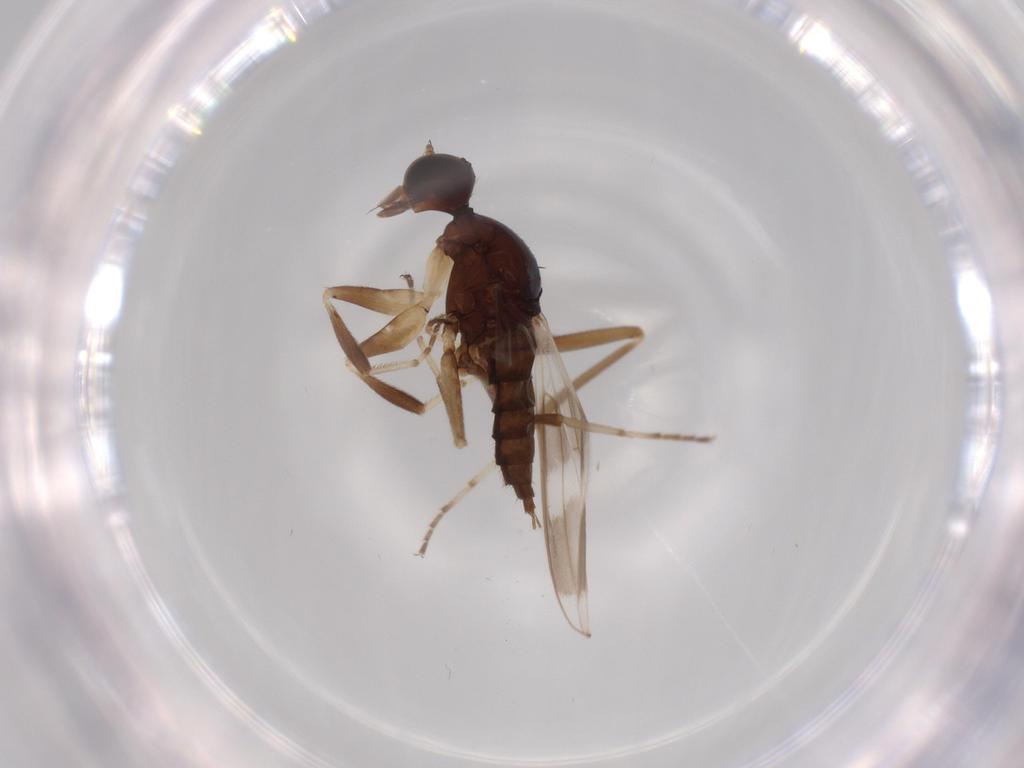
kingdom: Animalia
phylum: Arthropoda
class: Insecta
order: Diptera
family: Hybotidae
